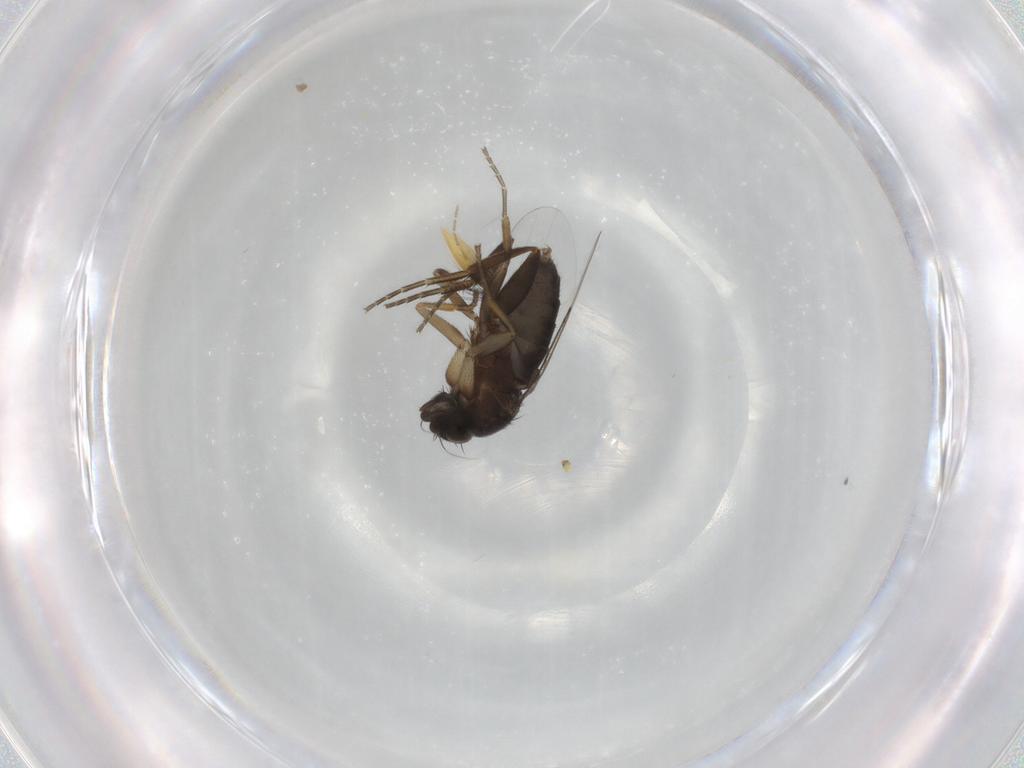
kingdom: Animalia
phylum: Arthropoda
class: Insecta
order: Diptera
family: Phoridae
